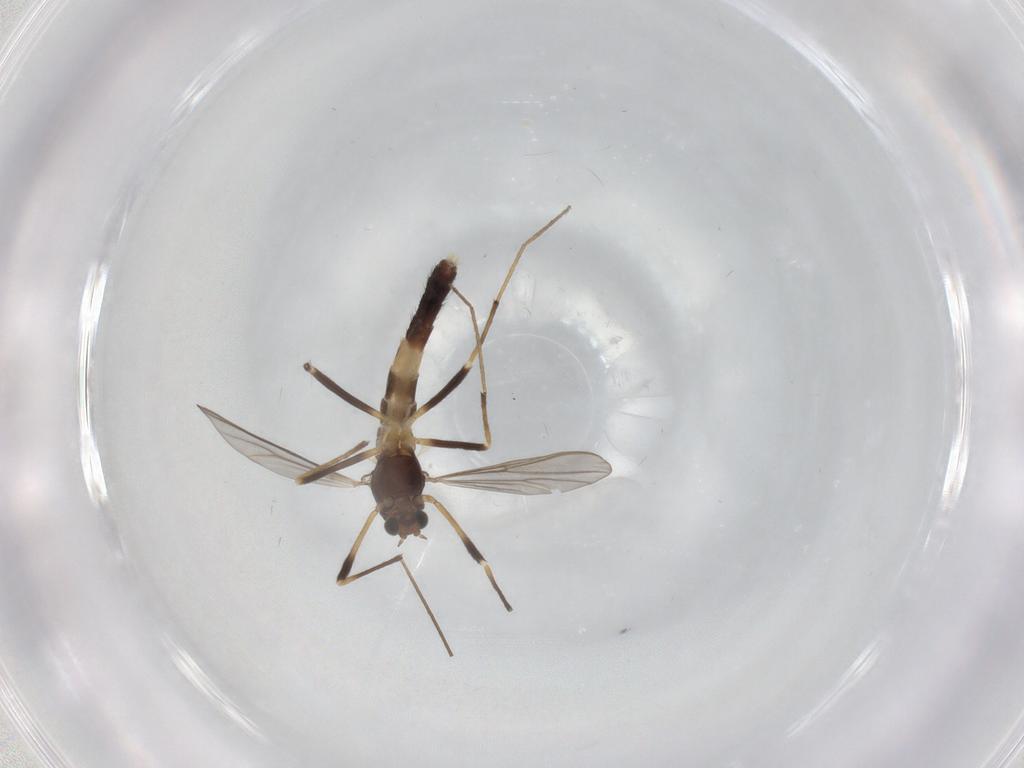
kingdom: Animalia
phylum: Arthropoda
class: Insecta
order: Diptera
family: Chironomidae
